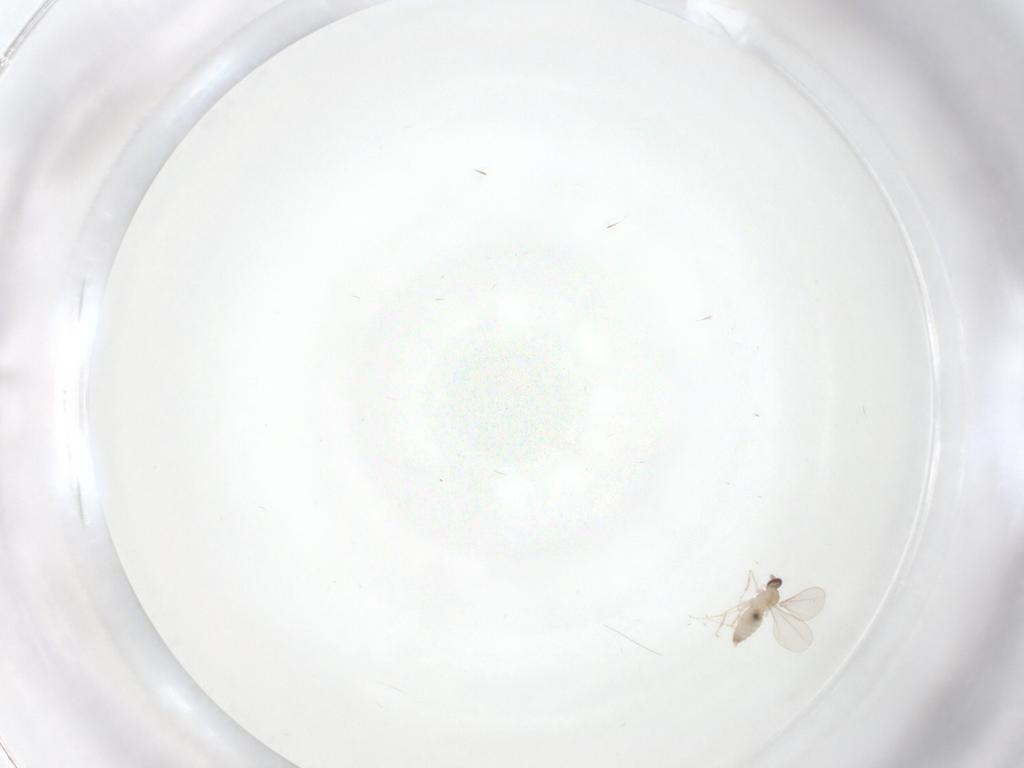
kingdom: Animalia
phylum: Arthropoda
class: Insecta
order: Diptera
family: Cecidomyiidae
